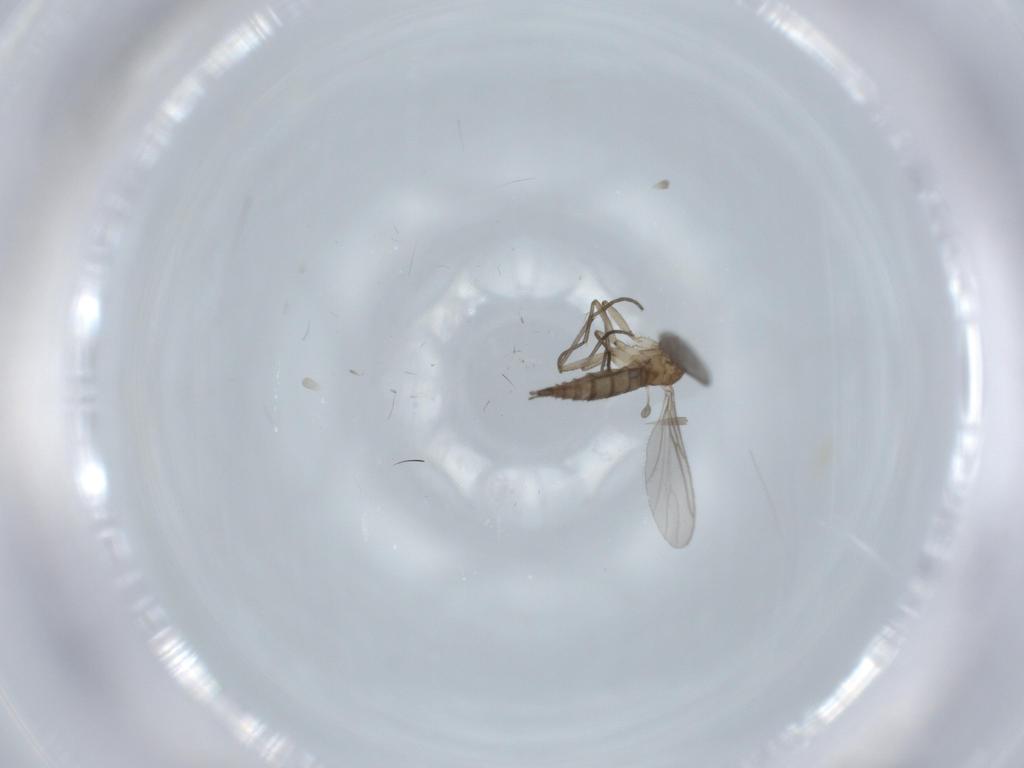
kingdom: Animalia
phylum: Arthropoda
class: Insecta
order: Diptera
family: Sciaridae
